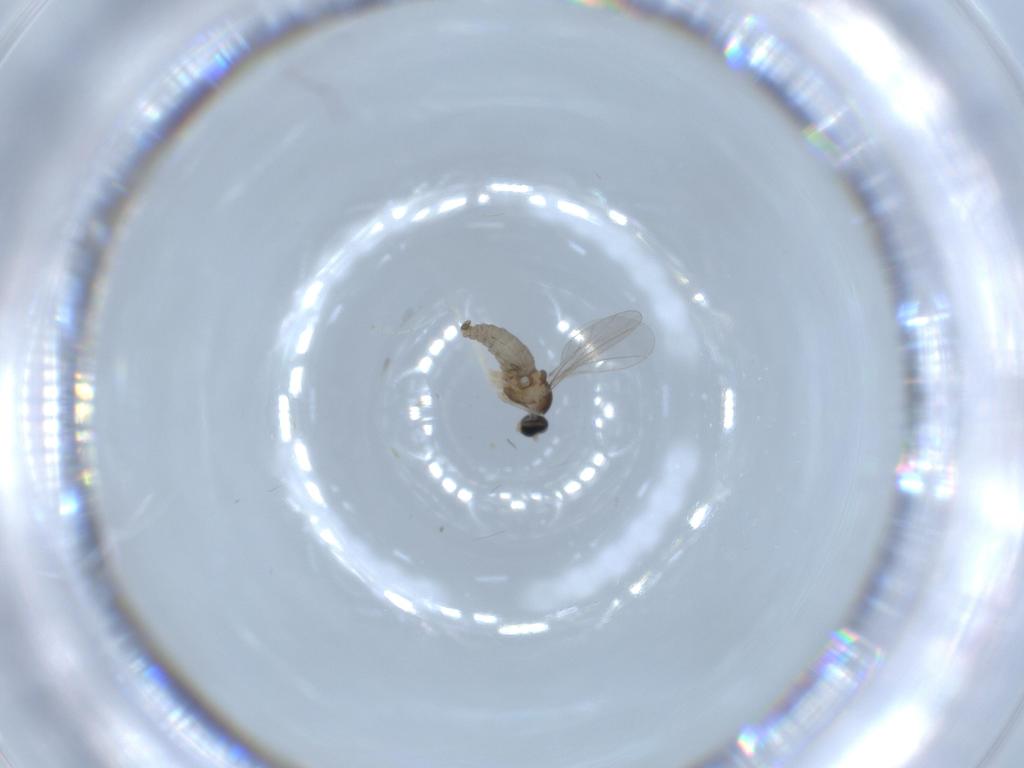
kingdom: Animalia
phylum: Arthropoda
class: Insecta
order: Diptera
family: Cecidomyiidae
